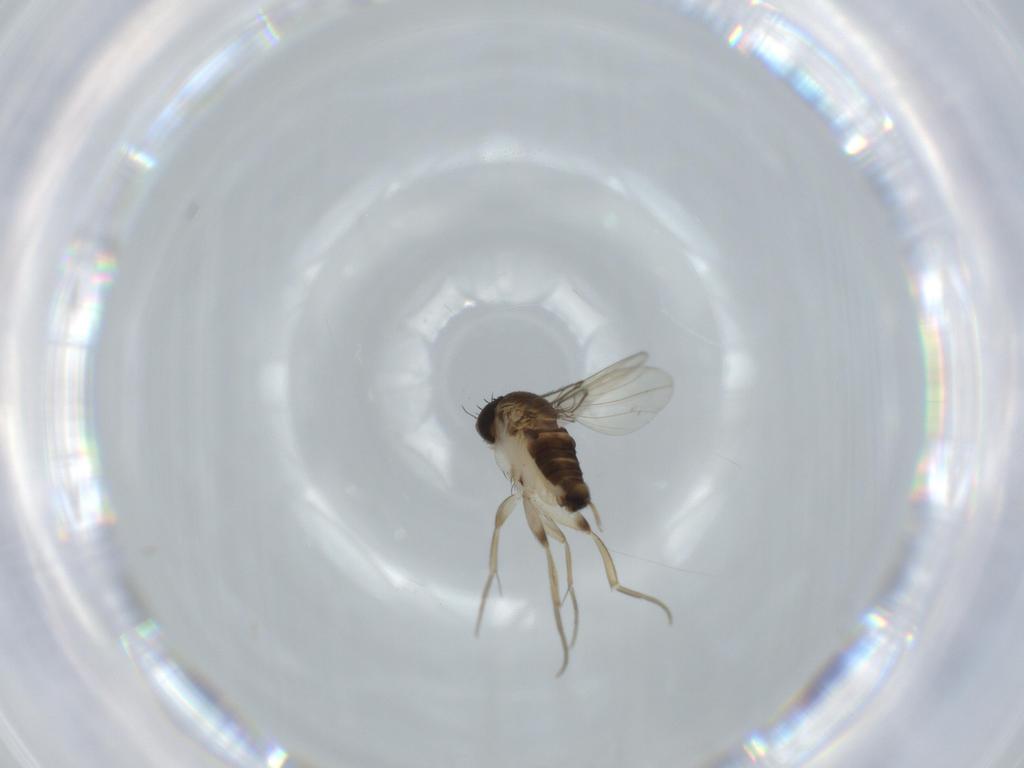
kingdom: Animalia
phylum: Arthropoda
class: Insecta
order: Diptera
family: Ceratopogonidae
